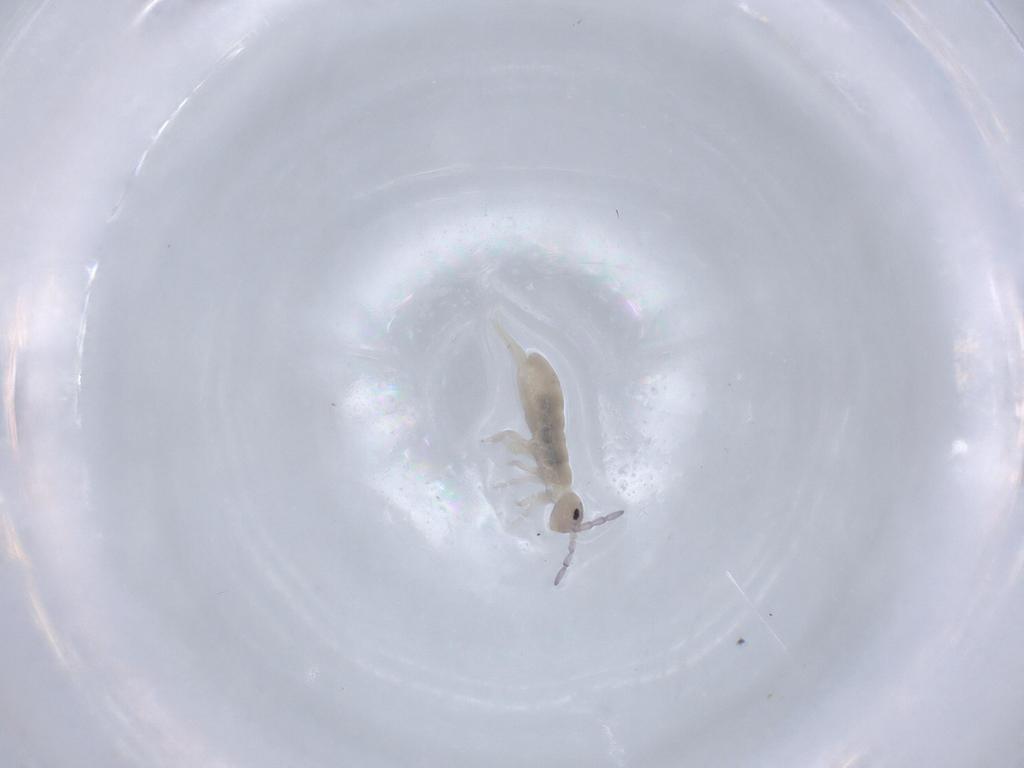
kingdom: Animalia
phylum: Arthropoda
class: Collembola
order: Entomobryomorpha
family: Isotomidae
